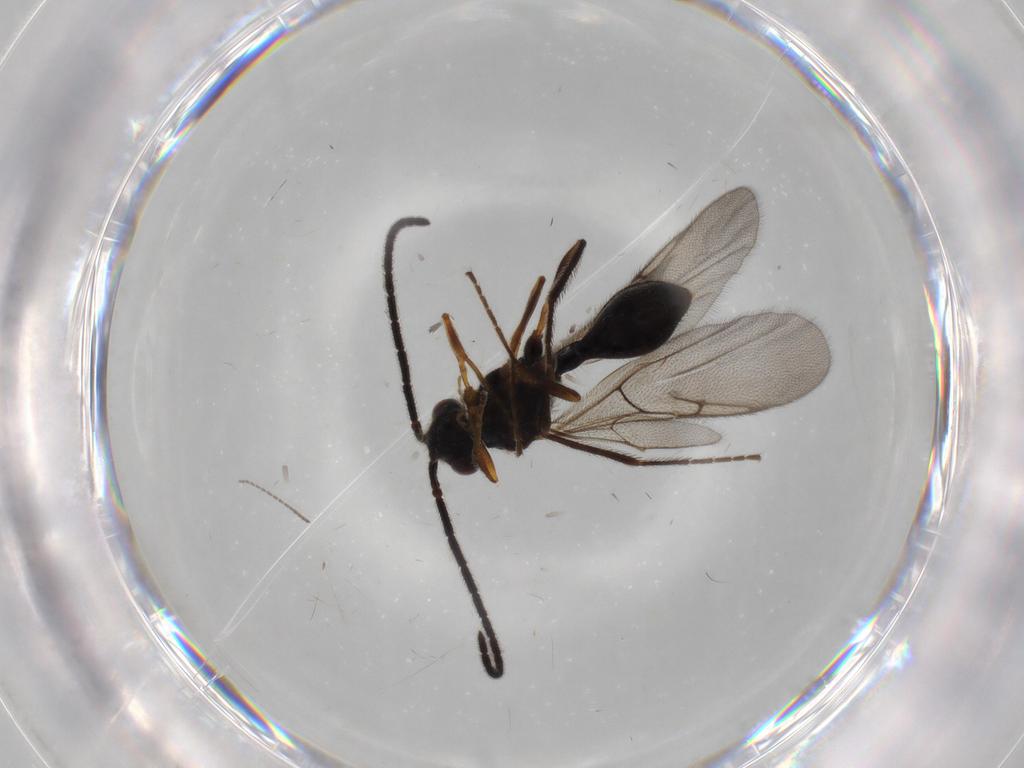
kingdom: Animalia
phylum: Arthropoda
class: Insecta
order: Hymenoptera
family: Diapriidae
